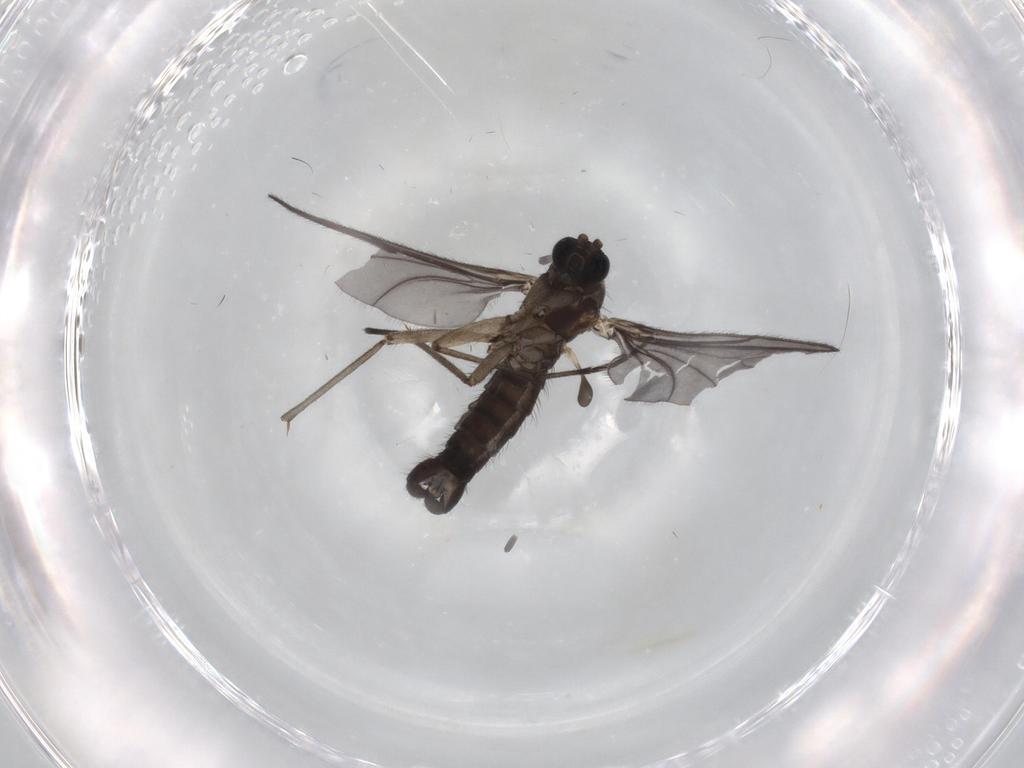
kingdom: Animalia
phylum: Arthropoda
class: Insecta
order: Diptera
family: Sciaridae
